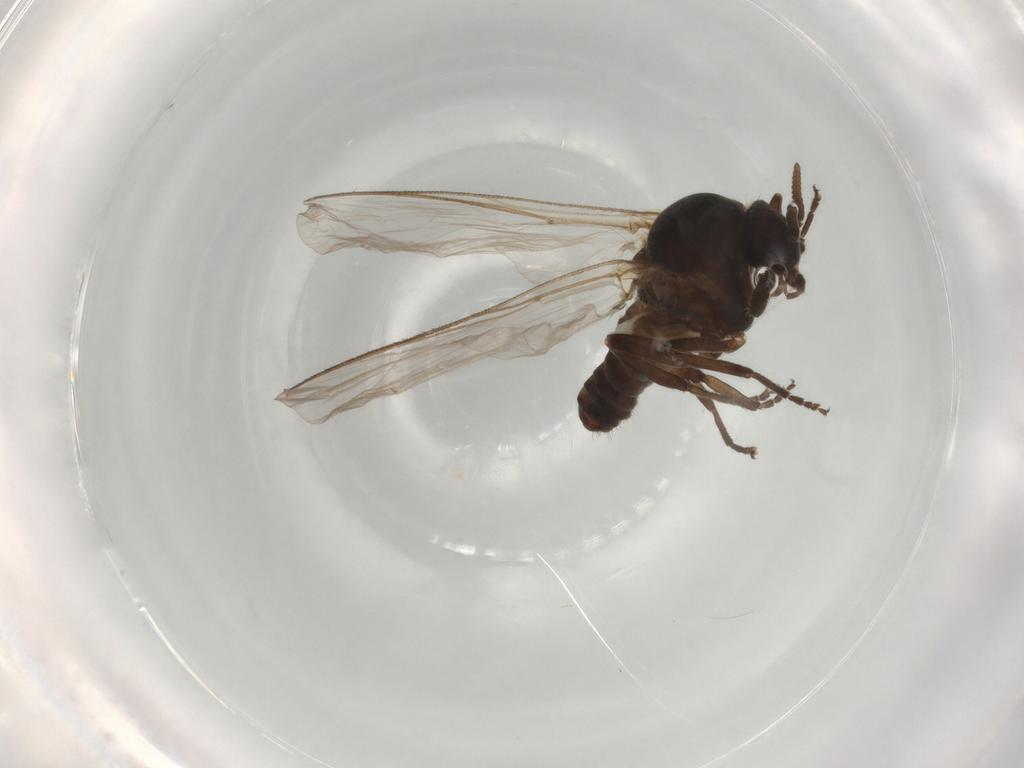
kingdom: Animalia
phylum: Arthropoda
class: Insecta
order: Diptera
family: Simuliidae
